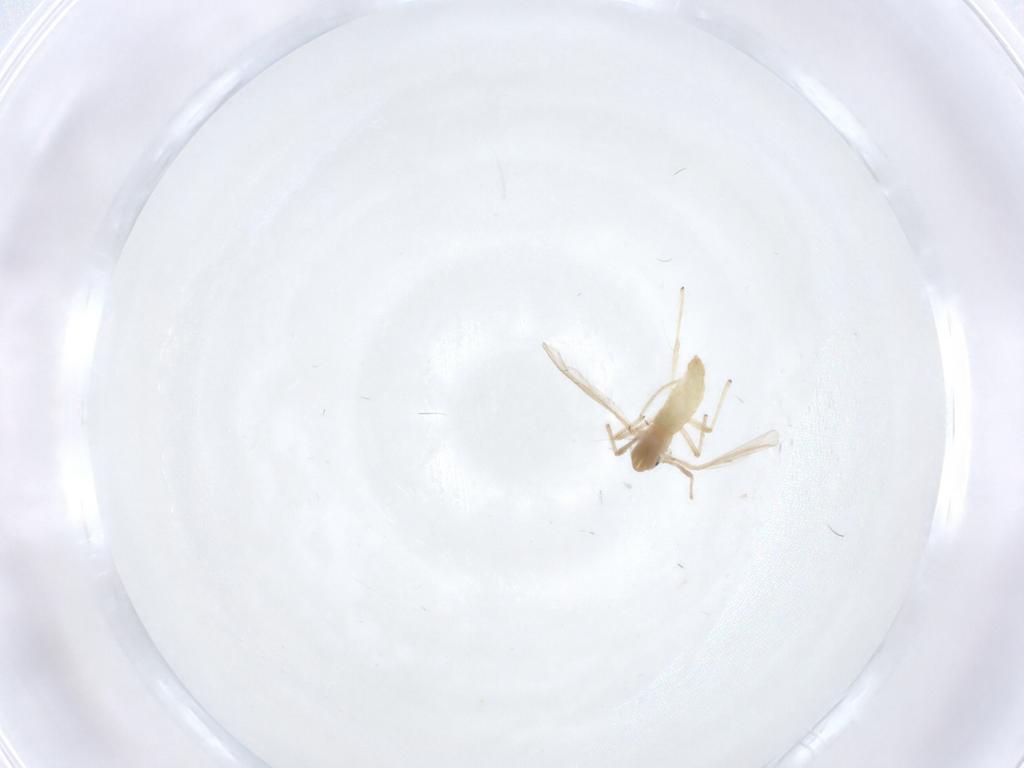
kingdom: Animalia
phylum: Arthropoda
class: Insecta
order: Diptera
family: Chironomidae
